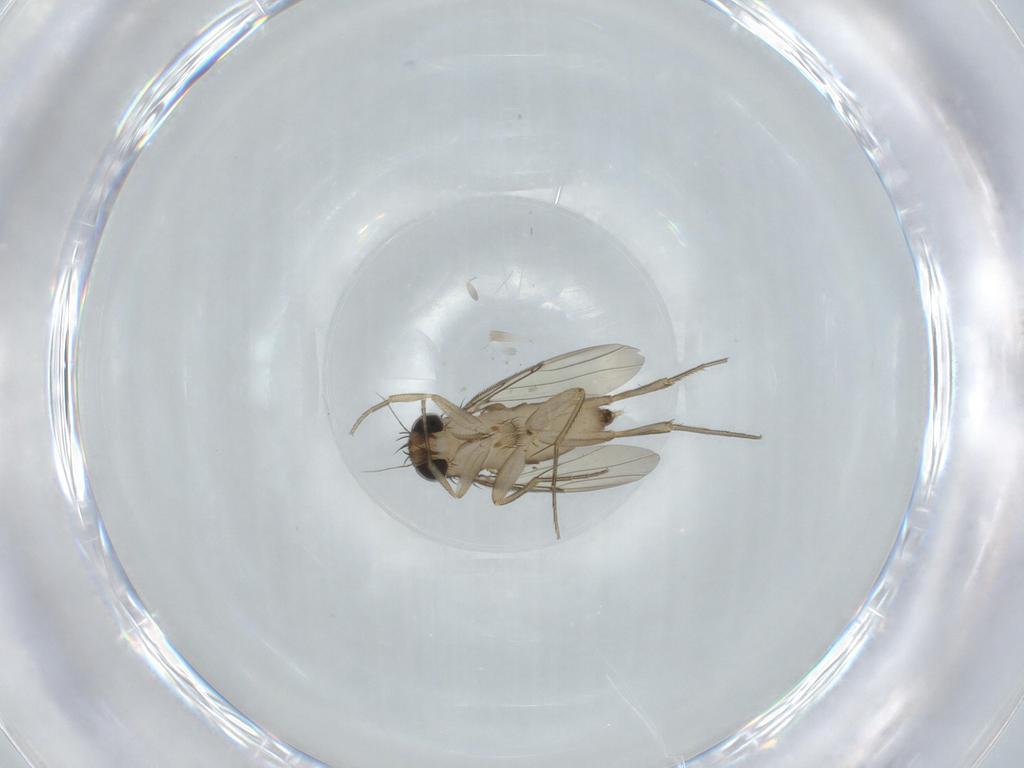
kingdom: Animalia
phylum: Arthropoda
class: Insecta
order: Diptera
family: Phoridae
